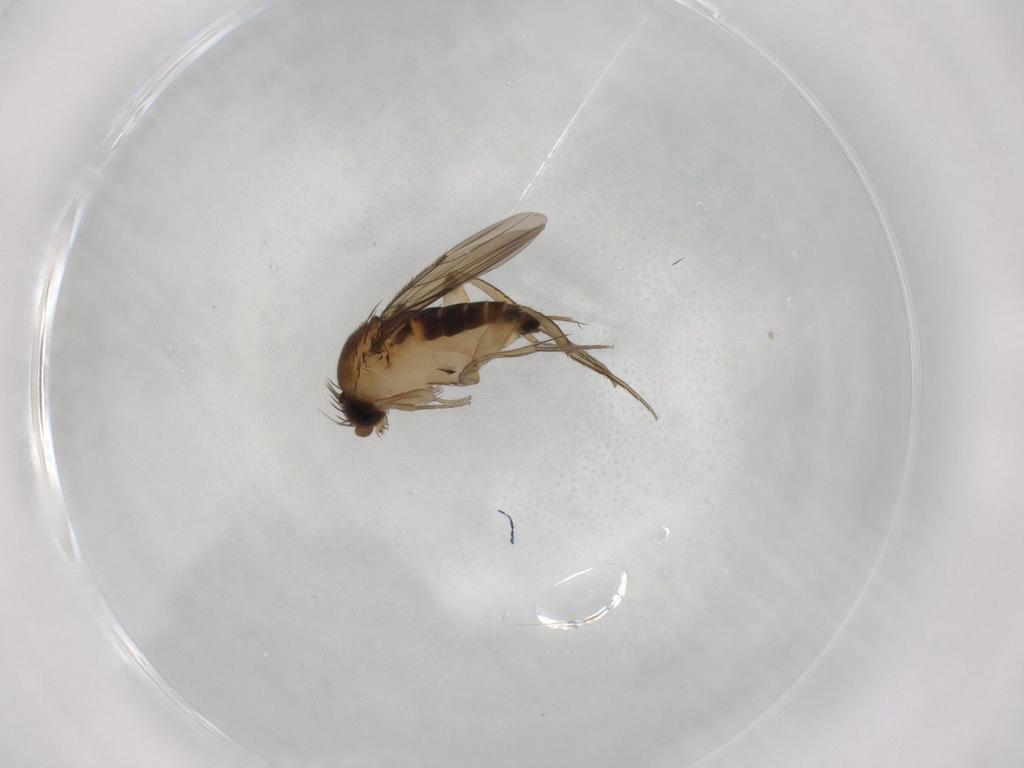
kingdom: Animalia
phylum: Arthropoda
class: Insecta
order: Diptera
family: Phoridae
